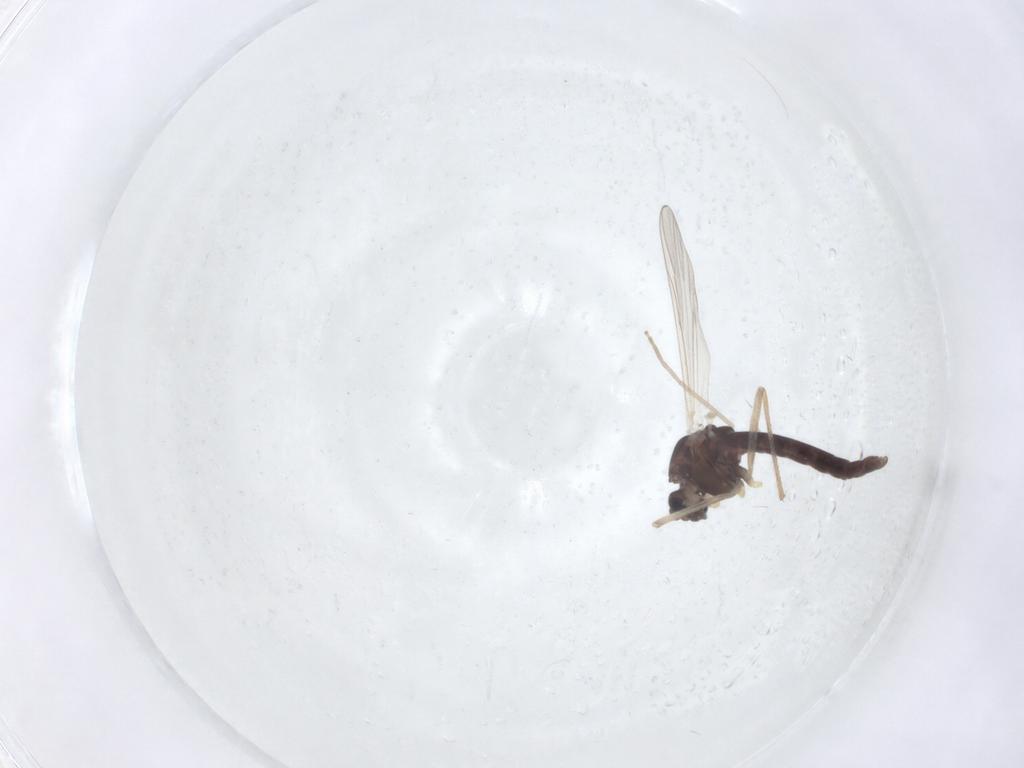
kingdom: Animalia
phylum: Arthropoda
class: Insecta
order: Diptera
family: Chironomidae
